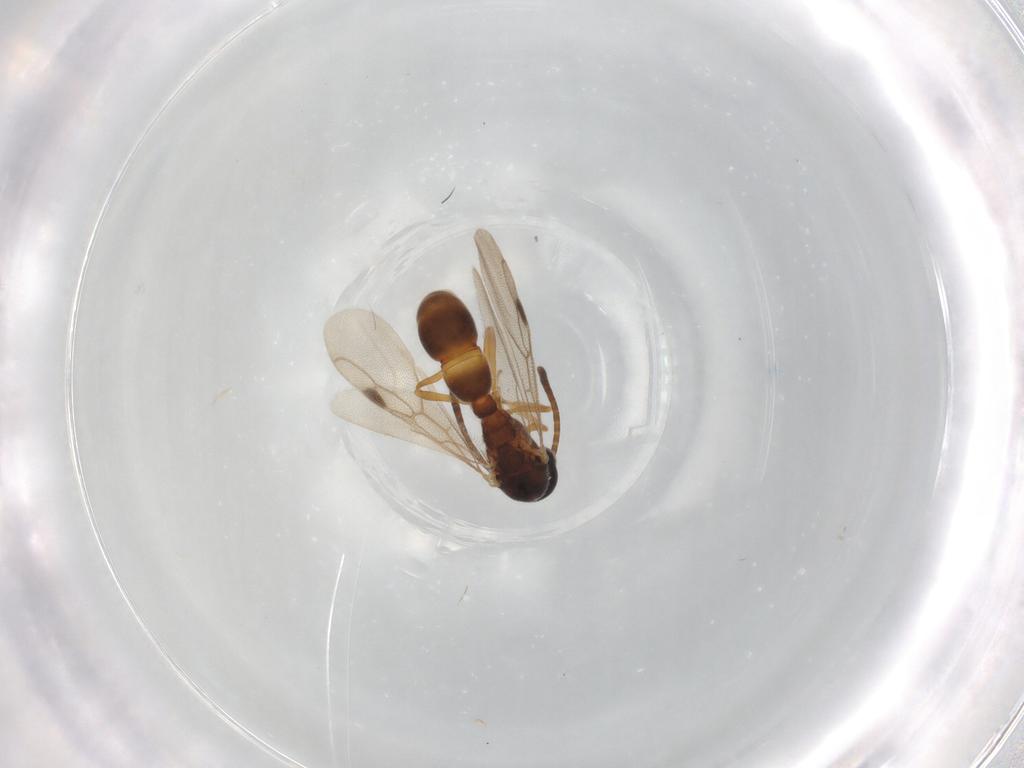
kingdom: Animalia
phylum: Arthropoda
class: Insecta
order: Hymenoptera
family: Formicidae
